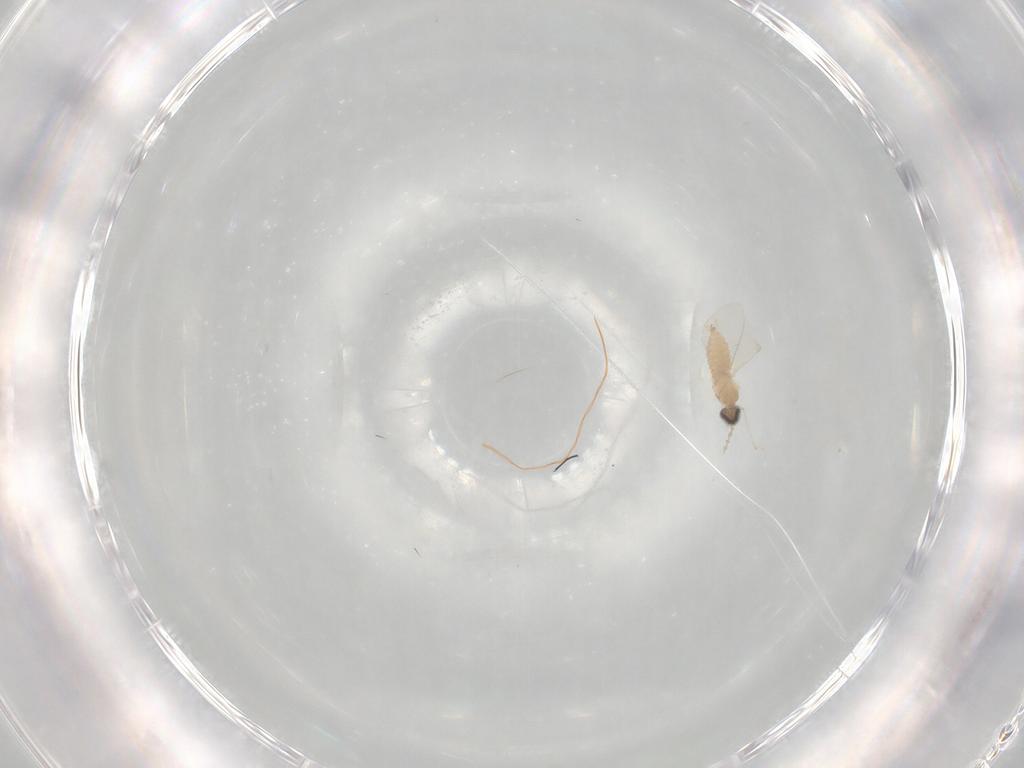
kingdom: Animalia
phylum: Arthropoda
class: Insecta
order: Diptera
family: Cecidomyiidae
